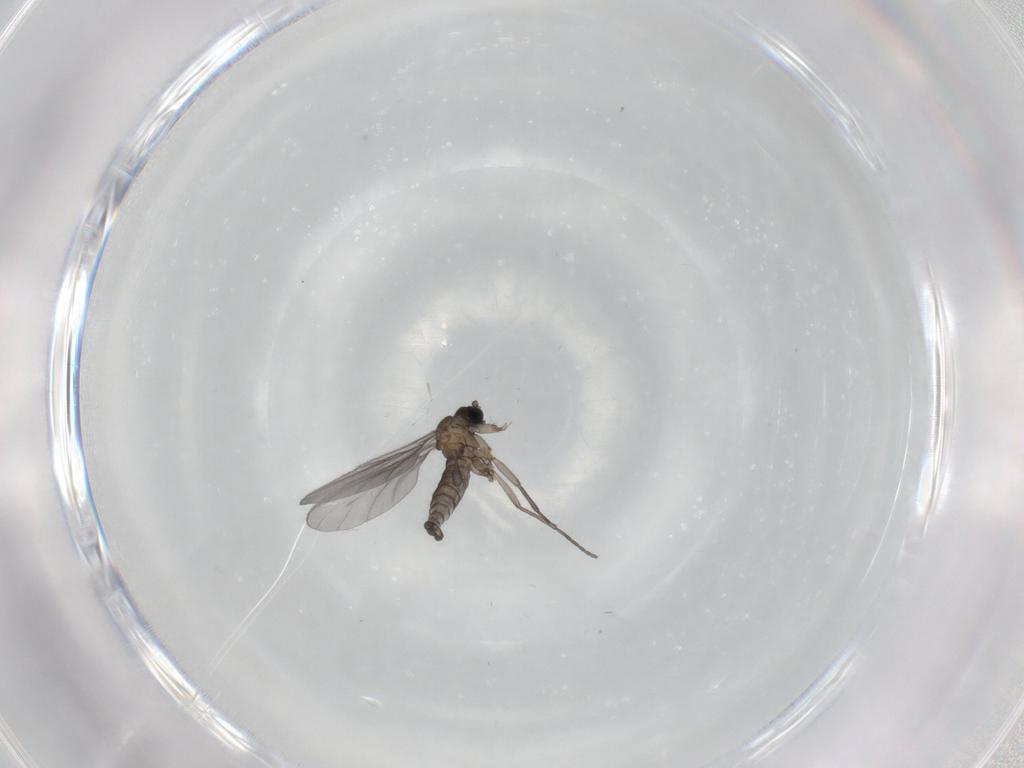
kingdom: Animalia
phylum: Arthropoda
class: Insecta
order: Diptera
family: Sciaridae
